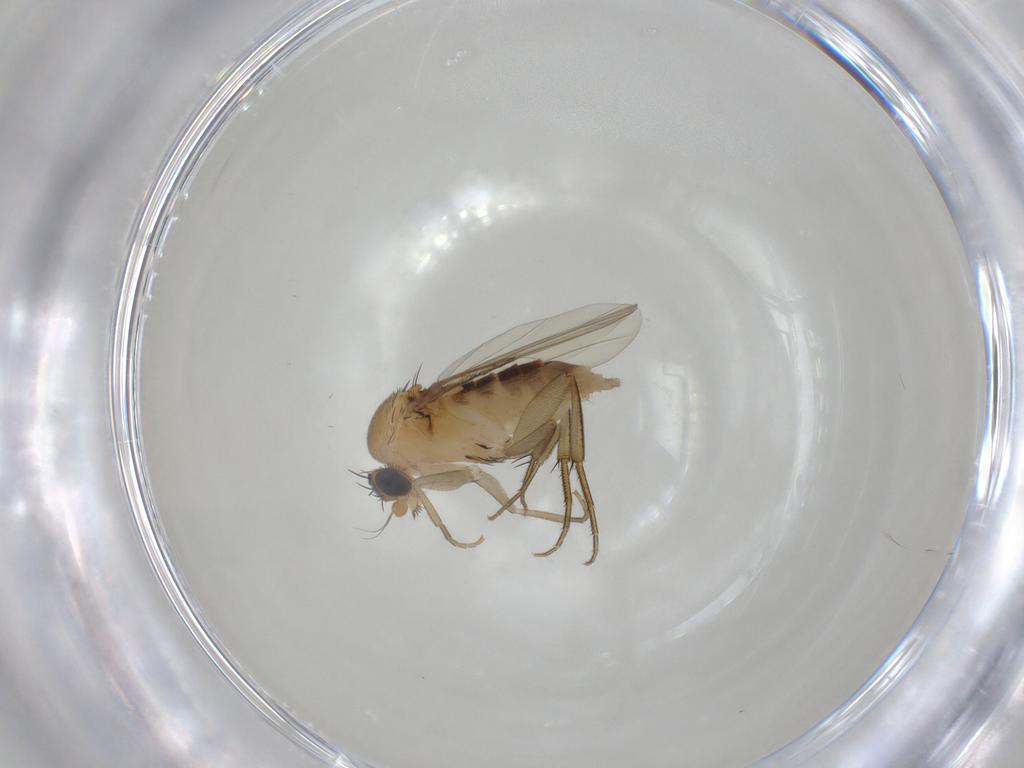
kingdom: Animalia
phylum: Arthropoda
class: Insecta
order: Diptera
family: Phoridae
